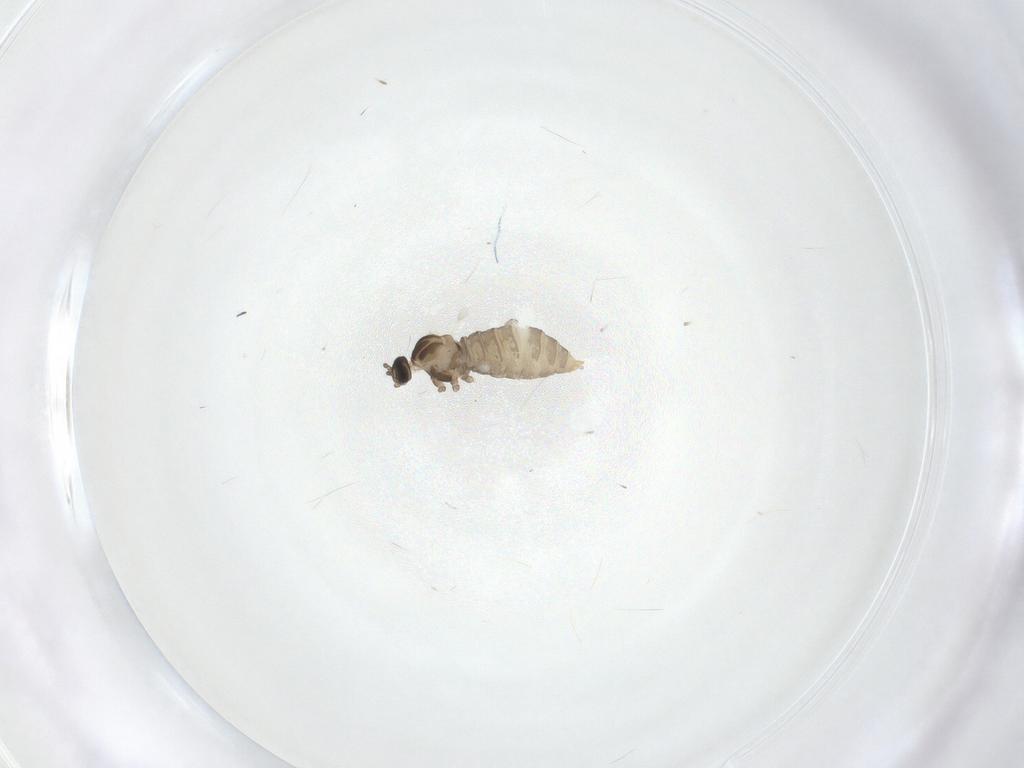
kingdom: Animalia
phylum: Arthropoda
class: Insecta
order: Diptera
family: Cecidomyiidae
